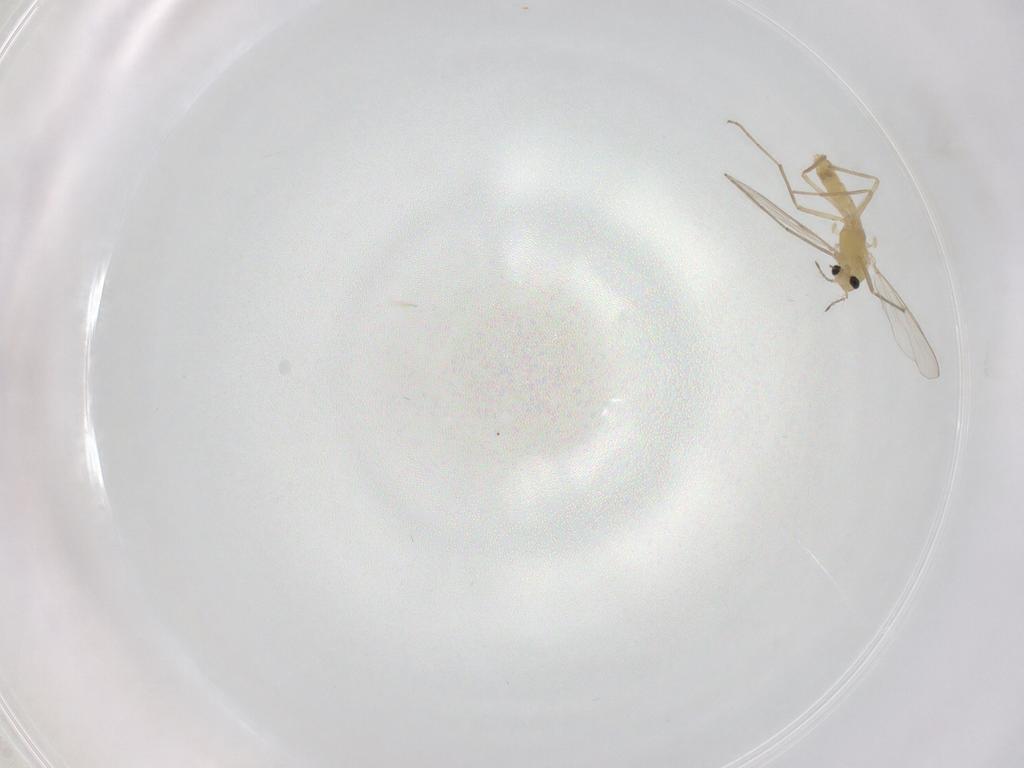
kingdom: Animalia
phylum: Arthropoda
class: Insecta
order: Diptera
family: Chironomidae
